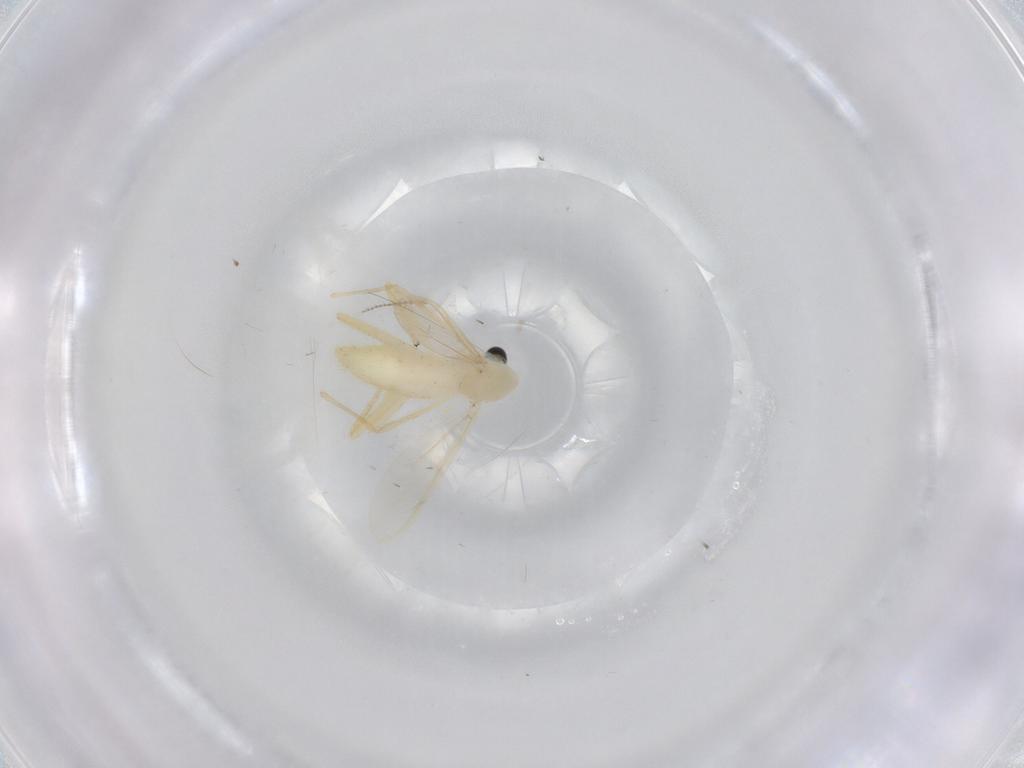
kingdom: Animalia
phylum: Arthropoda
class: Insecta
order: Diptera
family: Chironomidae
